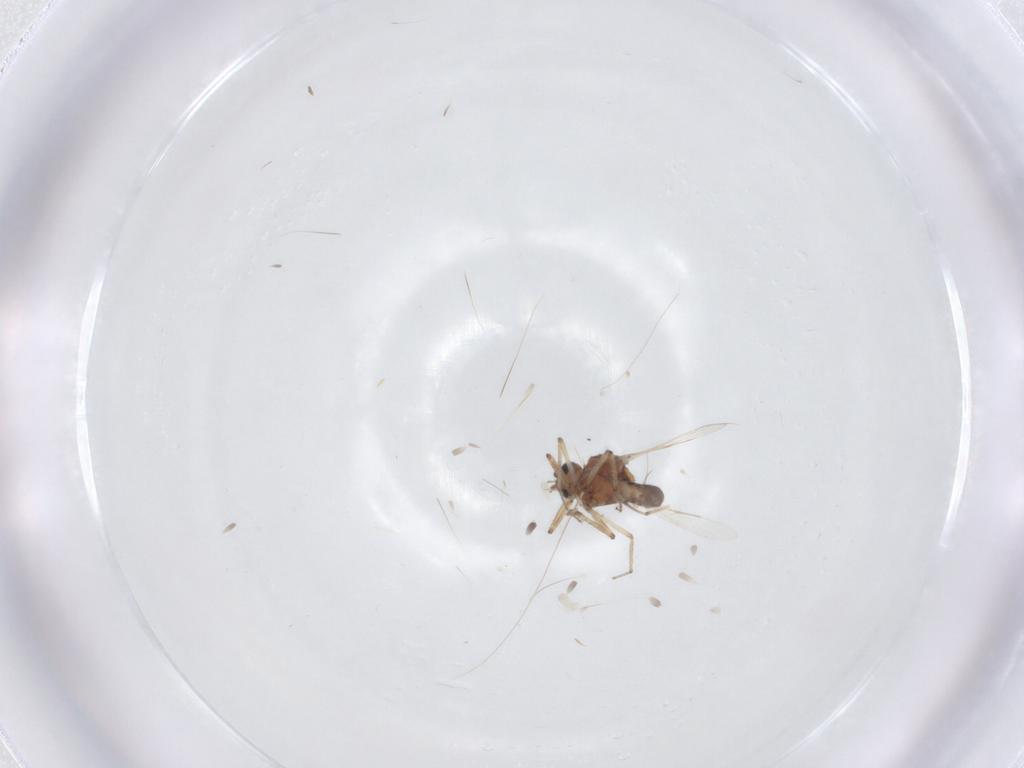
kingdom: Animalia
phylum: Arthropoda
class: Insecta
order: Diptera
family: Ceratopogonidae
